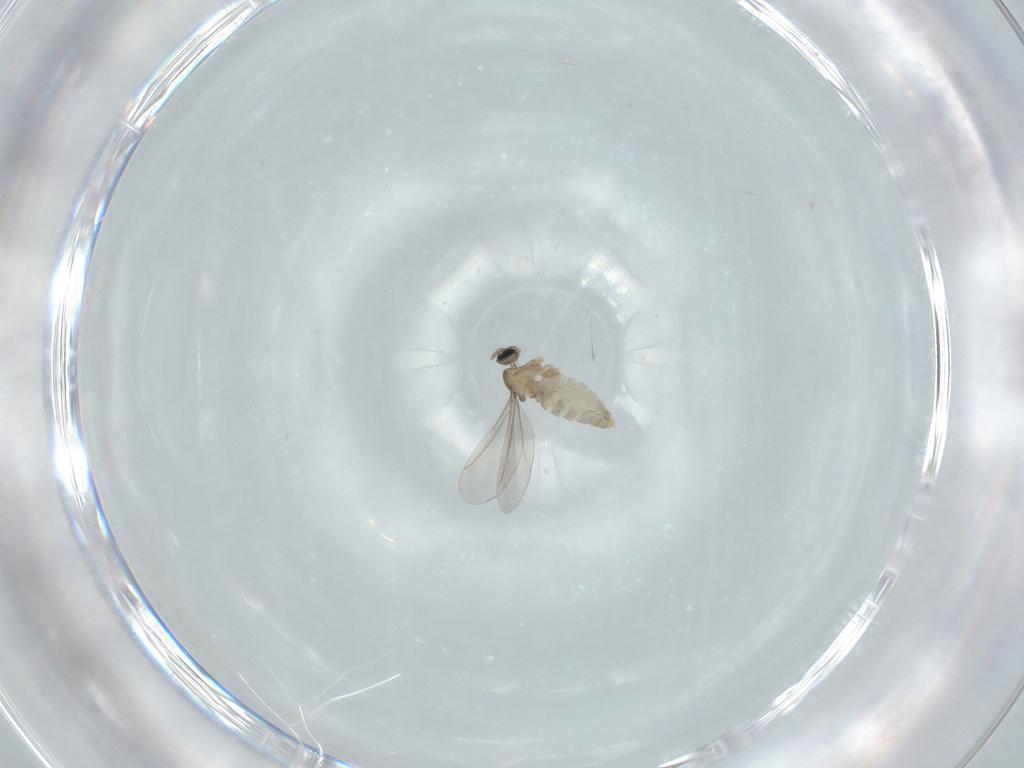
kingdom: Animalia
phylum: Arthropoda
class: Insecta
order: Diptera
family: Cecidomyiidae
